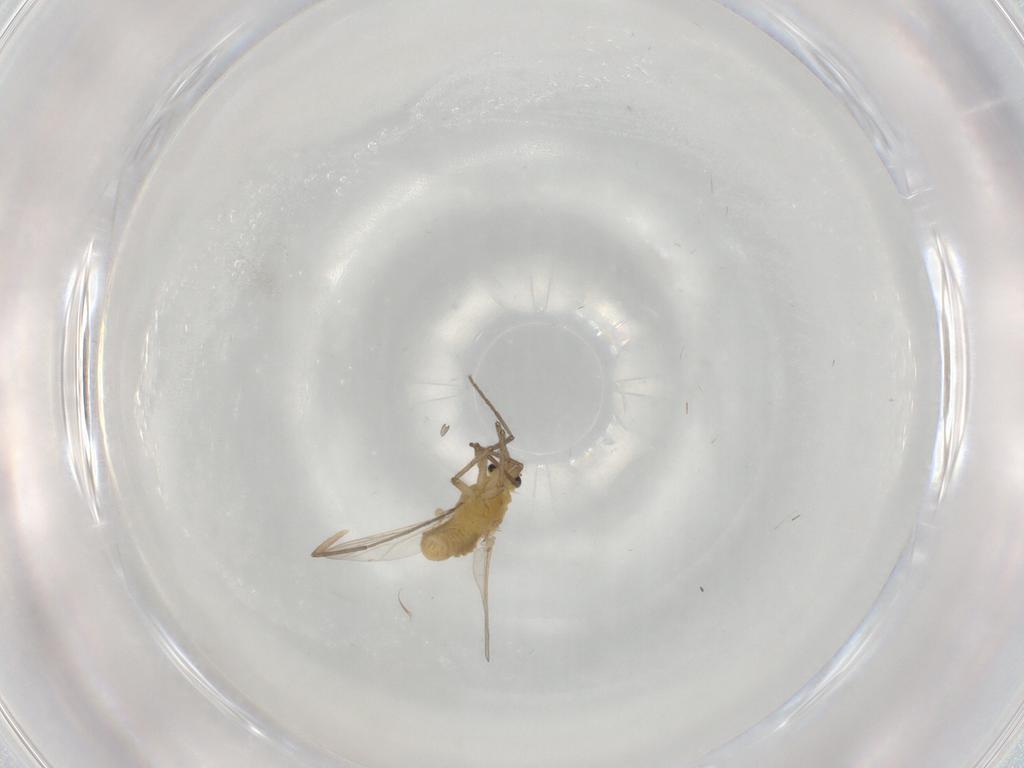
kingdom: Animalia
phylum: Arthropoda
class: Insecta
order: Diptera
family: Chironomidae
